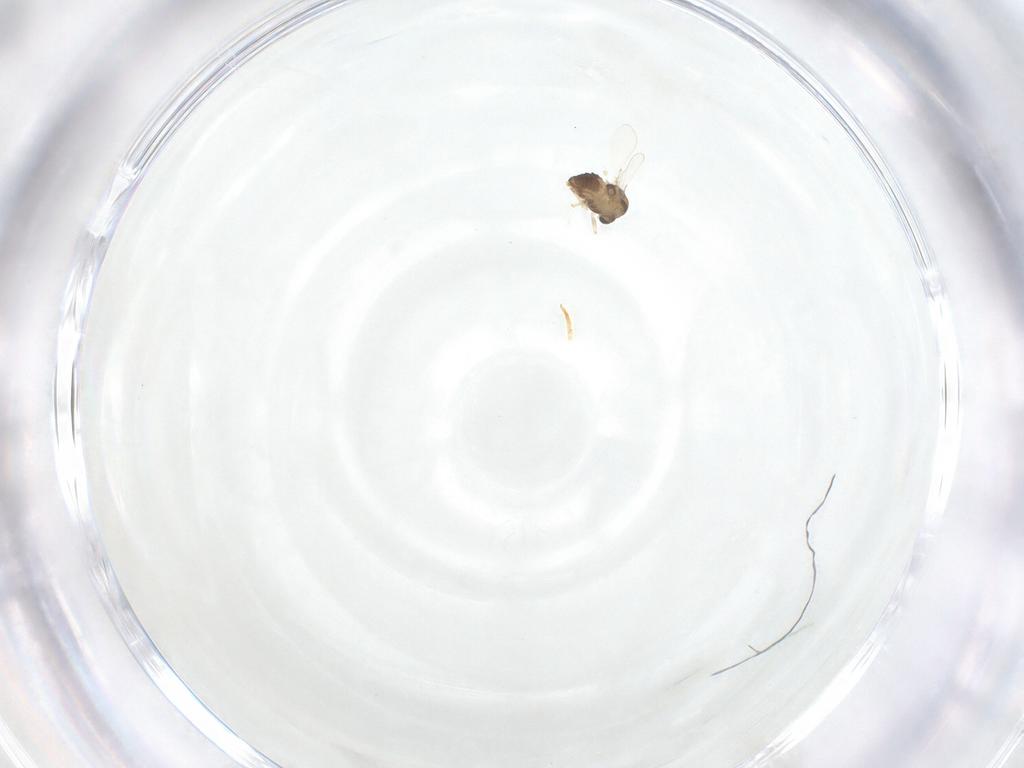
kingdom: Animalia
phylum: Arthropoda
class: Insecta
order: Diptera
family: Chironomidae
